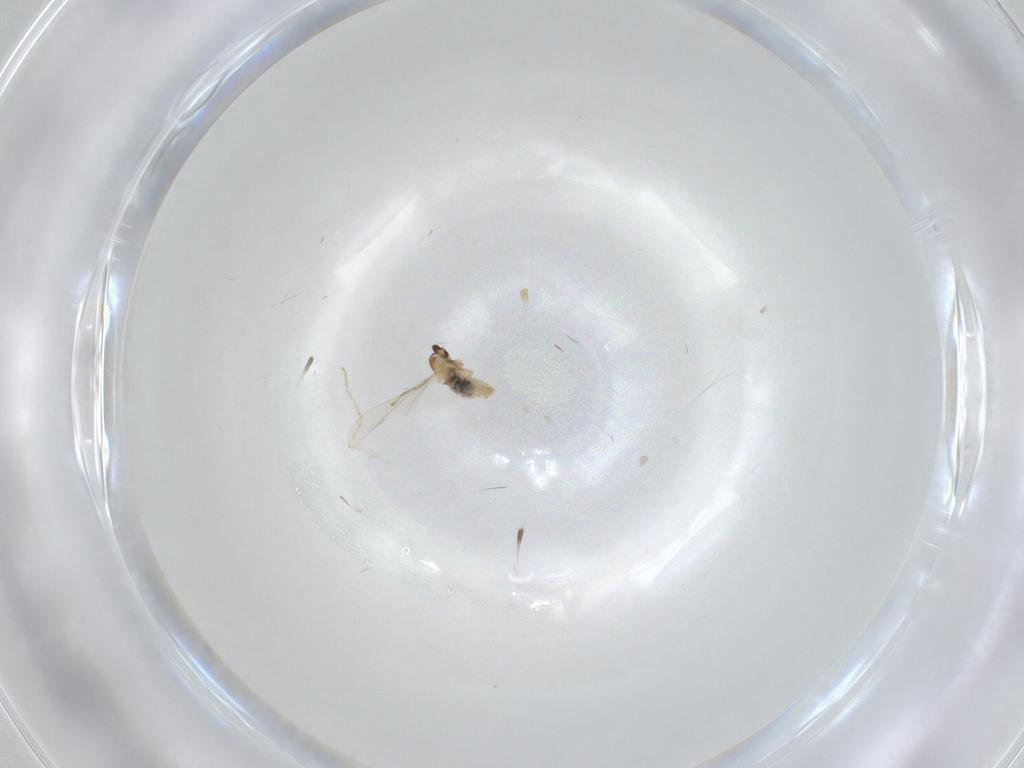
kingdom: Animalia
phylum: Arthropoda
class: Insecta
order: Diptera
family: Cecidomyiidae
